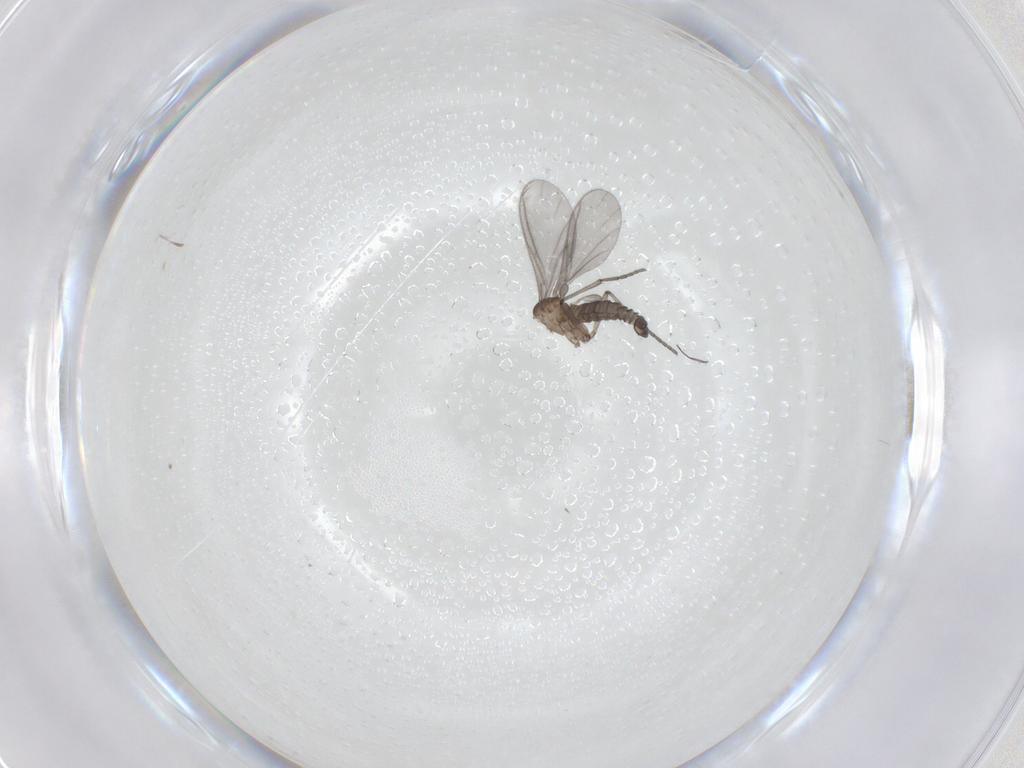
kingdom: Animalia
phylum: Arthropoda
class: Insecta
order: Diptera
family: Sciaridae
